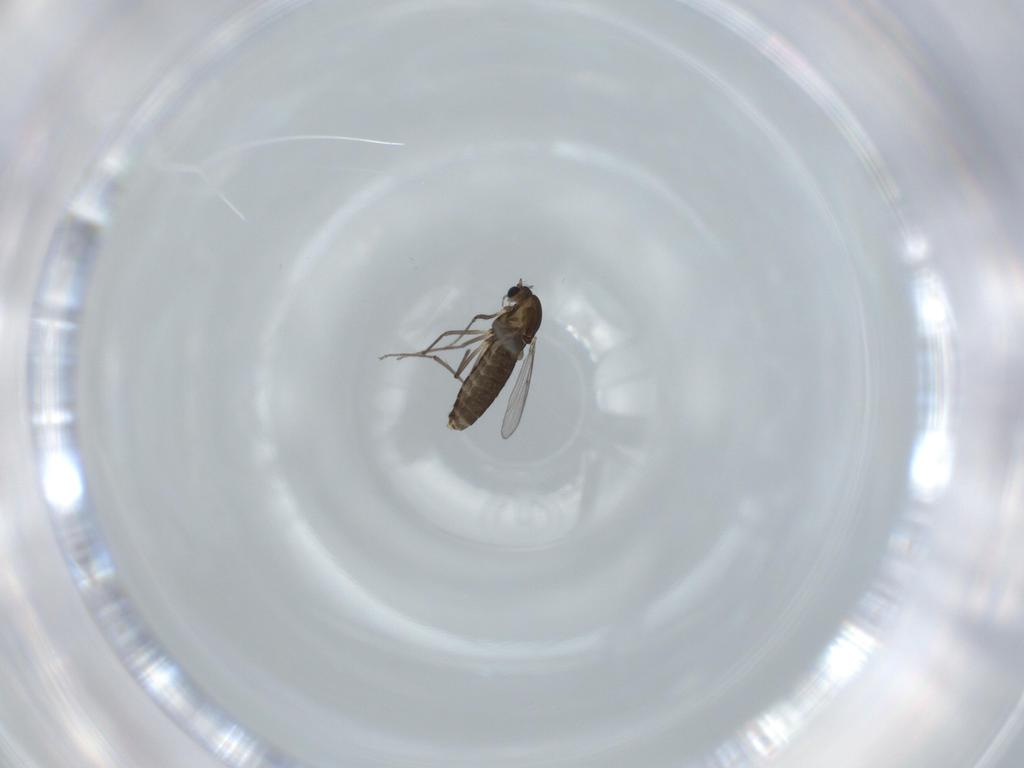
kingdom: Animalia
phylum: Arthropoda
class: Insecta
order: Diptera
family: Chironomidae
